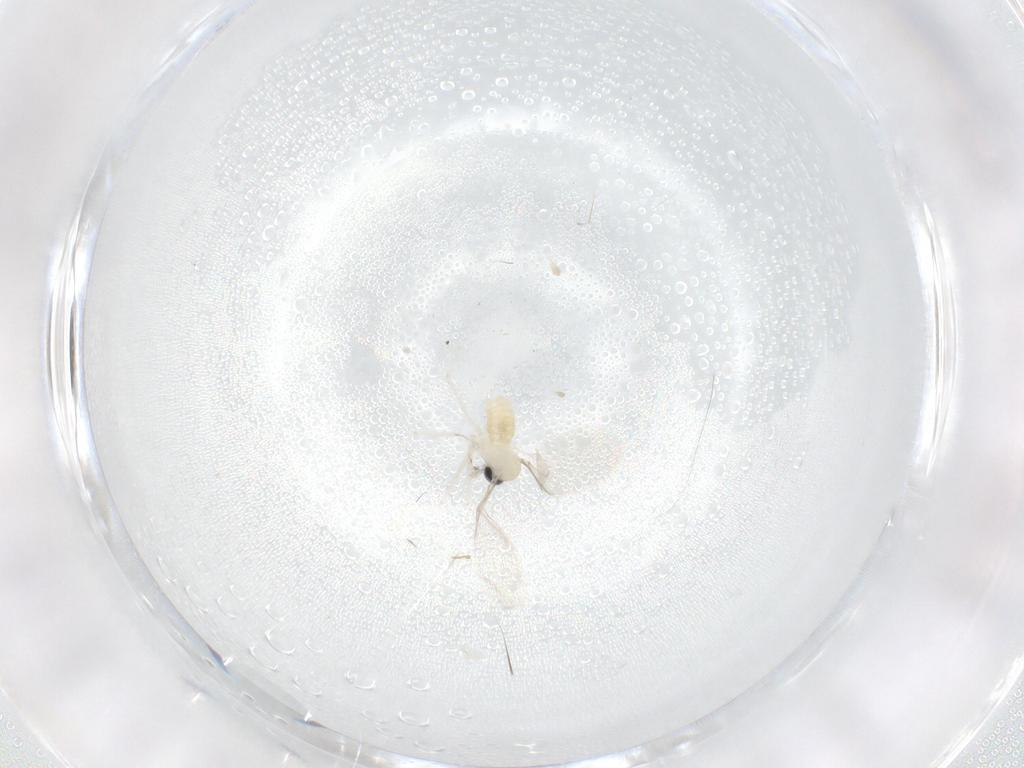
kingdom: Animalia
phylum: Arthropoda
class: Insecta
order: Diptera
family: Cecidomyiidae
